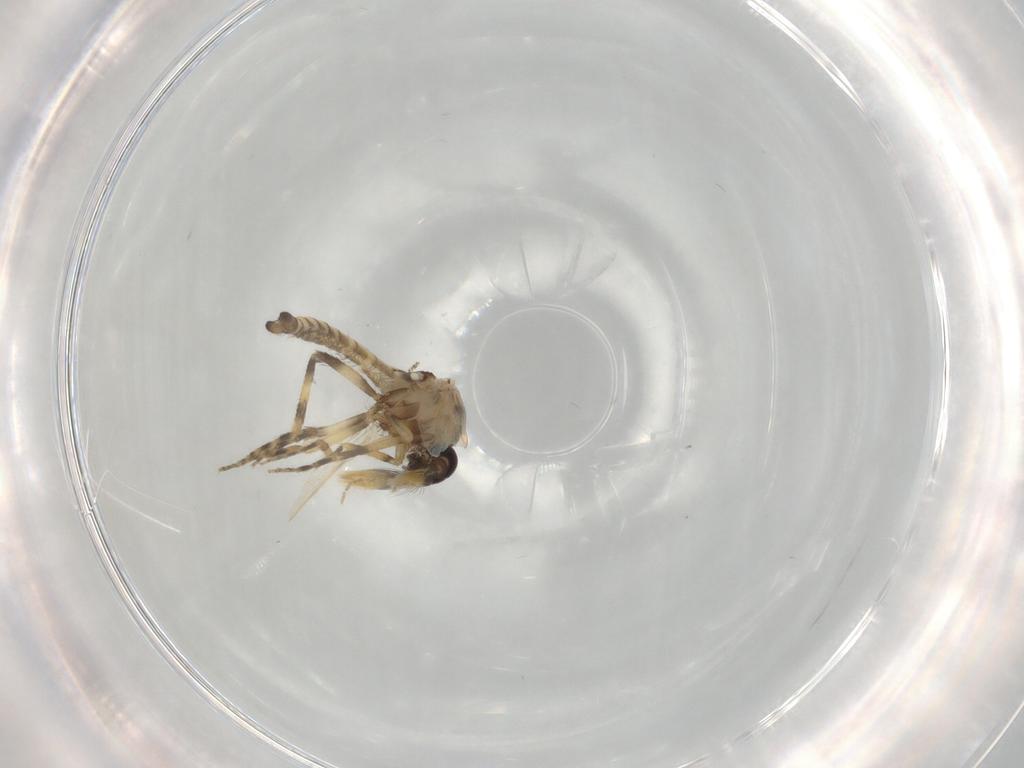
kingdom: Animalia
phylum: Arthropoda
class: Insecta
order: Diptera
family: Ceratopogonidae
